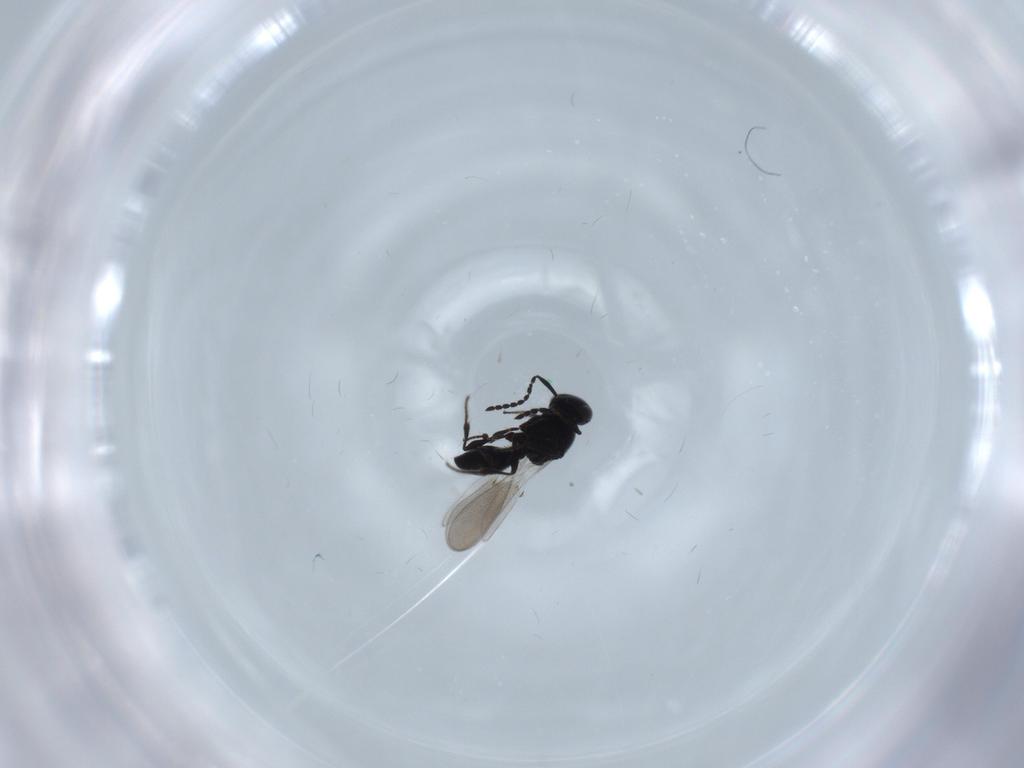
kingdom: Animalia
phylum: Arthropoda
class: Insecta
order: Hymenoptera
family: Platygastridae
